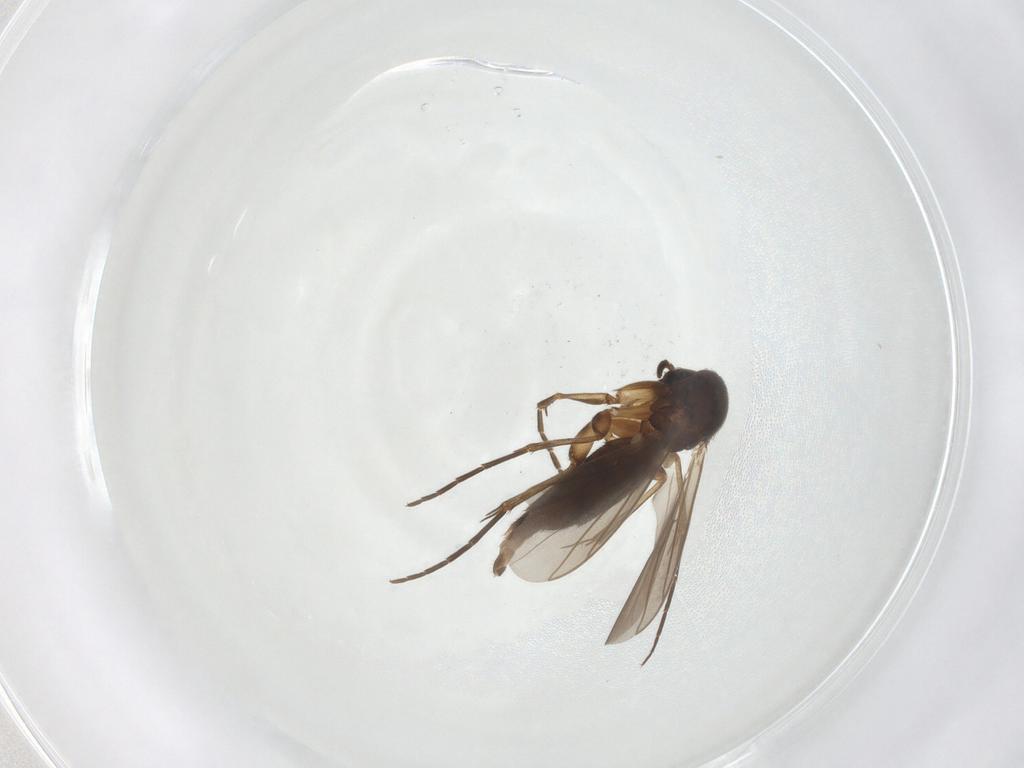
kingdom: Animalia
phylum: Arthropoda
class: Insecta
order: Diptera
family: Mycetophilidae
